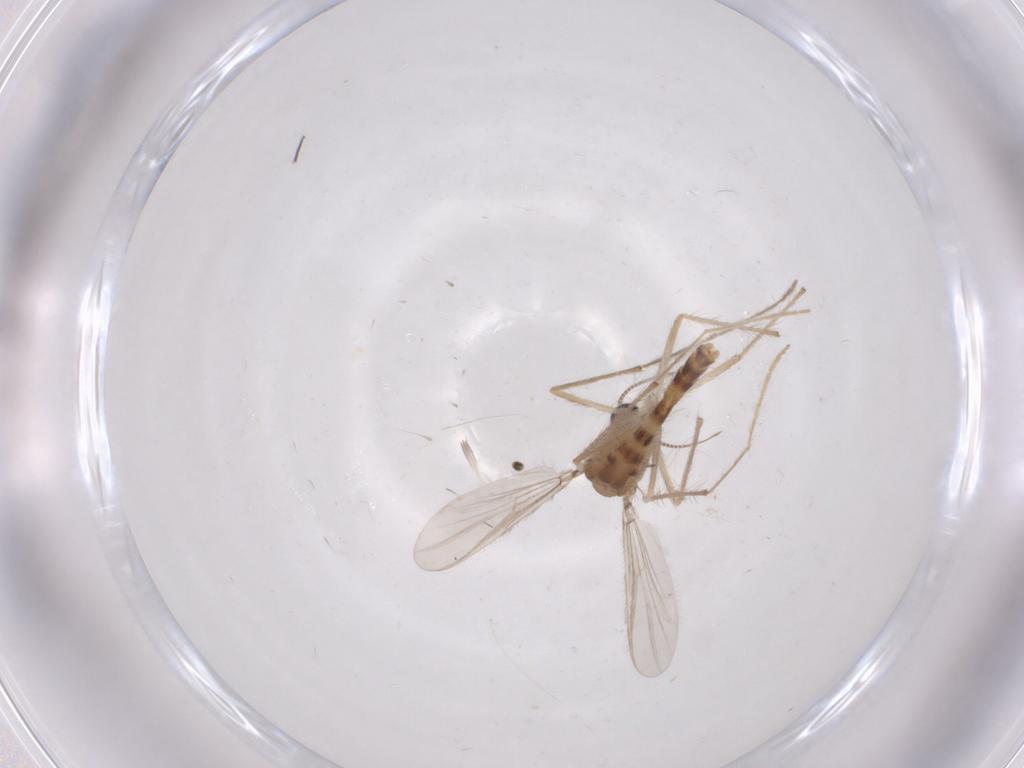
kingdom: Animalia
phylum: Arthropoda
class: Insecta
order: Diptera
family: Chironomidae
